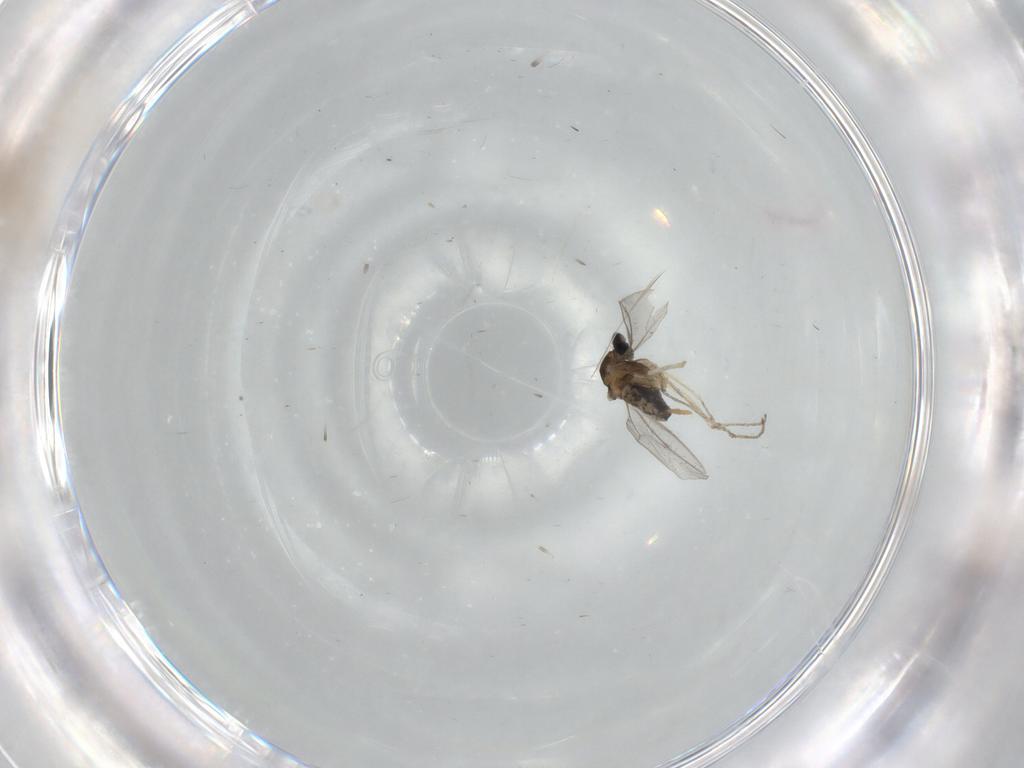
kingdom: Animalia
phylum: Arthropoda
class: Insecta
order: Diptera
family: Cecidomyiidae
